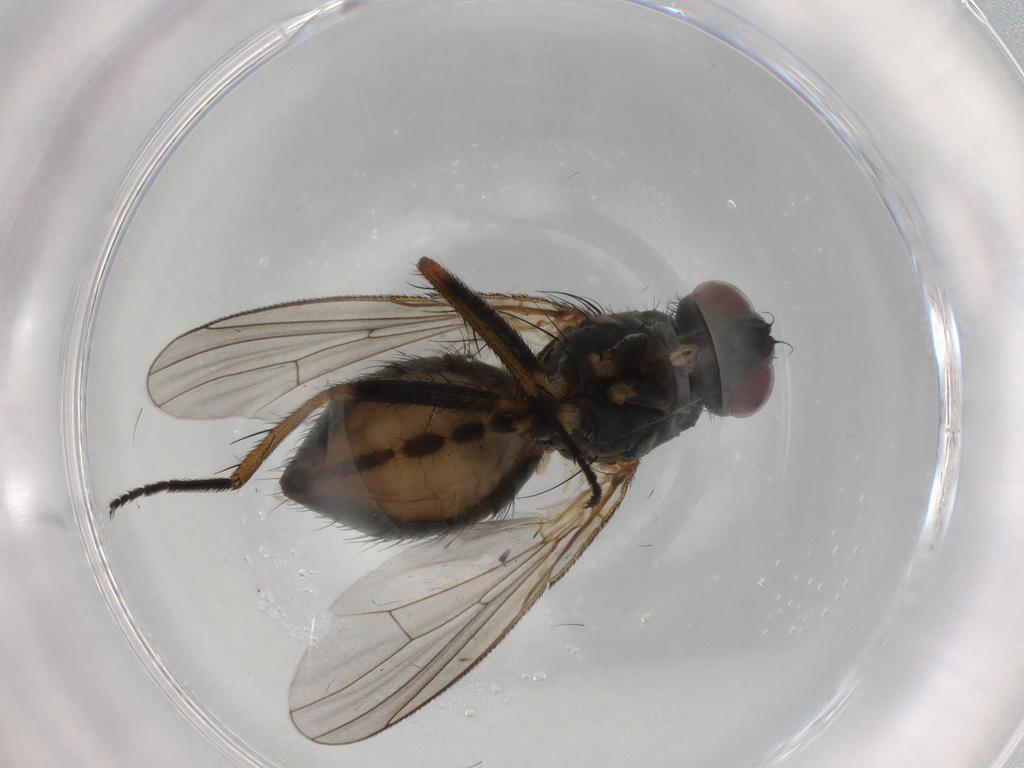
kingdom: Animalia
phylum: Arthropoda
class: Insecta
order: Diptera
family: Muscidae
